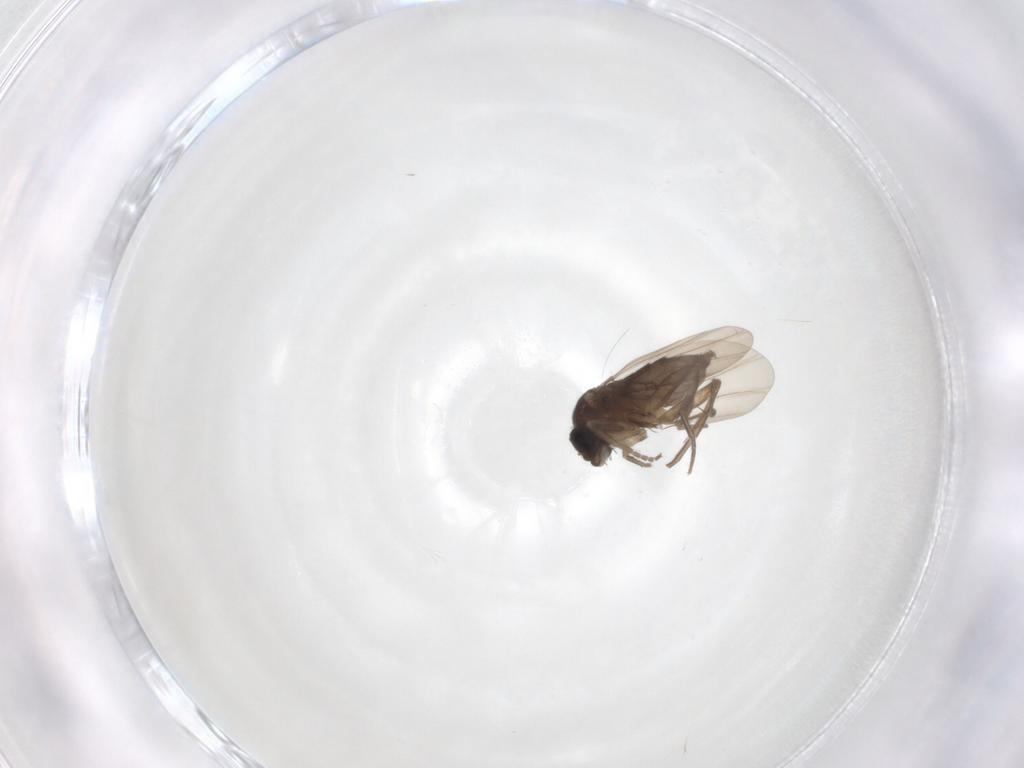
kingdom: Animalia
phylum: Arthropoda
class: Insecta
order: Diptera
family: Phoridae
